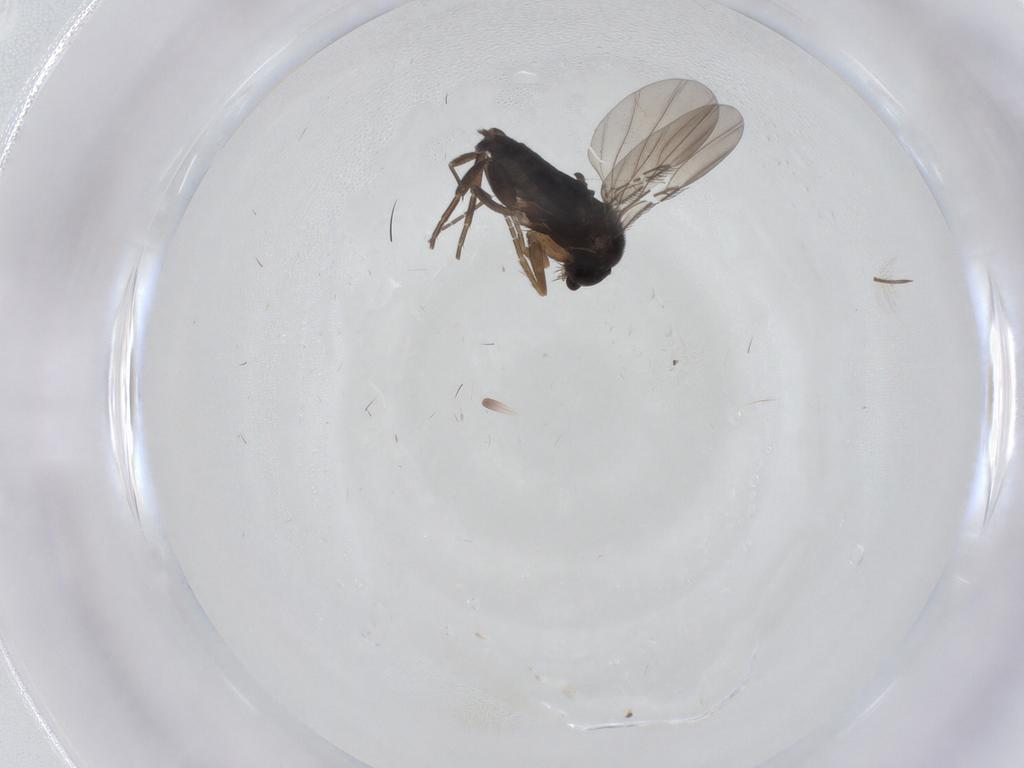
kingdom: Animalia
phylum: Arthropoda
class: Insecta
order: Diptera
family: Phoridae
